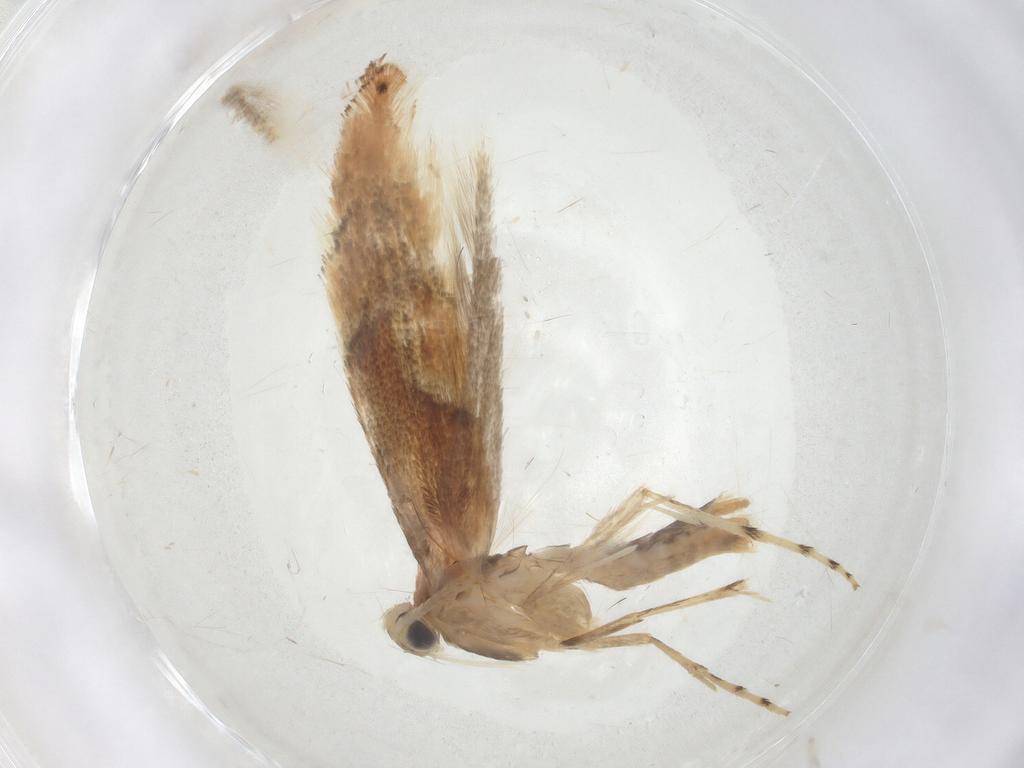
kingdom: Animalia
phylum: Arthropoda
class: Insecta
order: Lepidoptera
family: Gracillariidae
